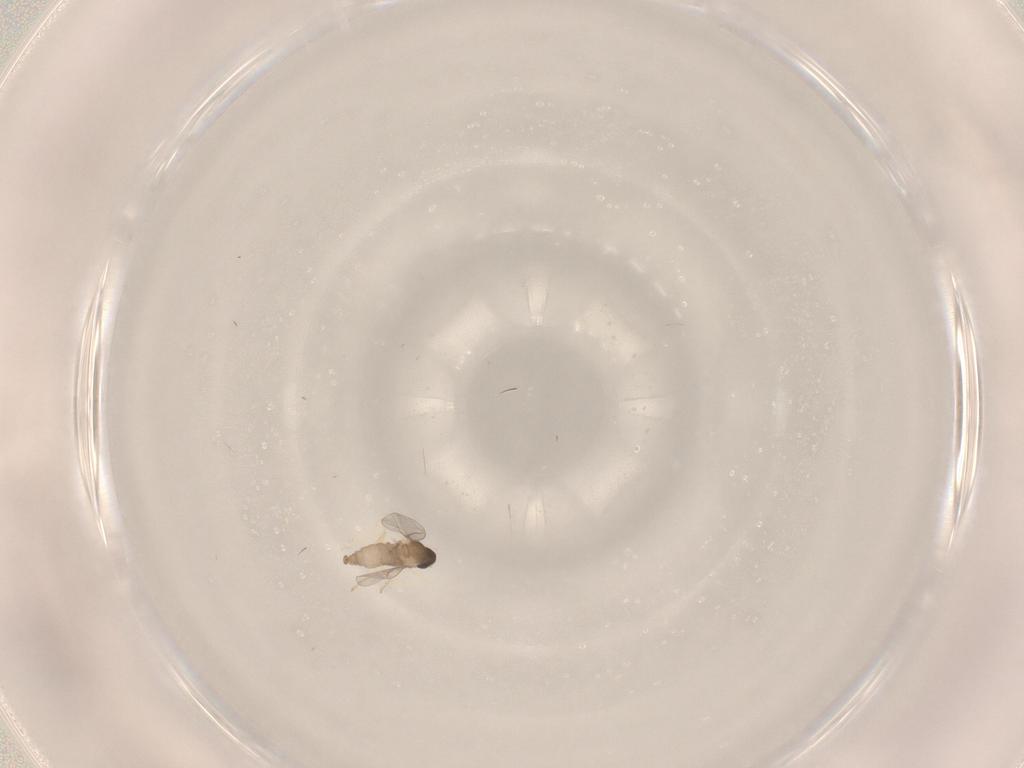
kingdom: Animalia
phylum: Arthropoda
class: Insecta
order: Diptera
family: Cecidomyiidae
